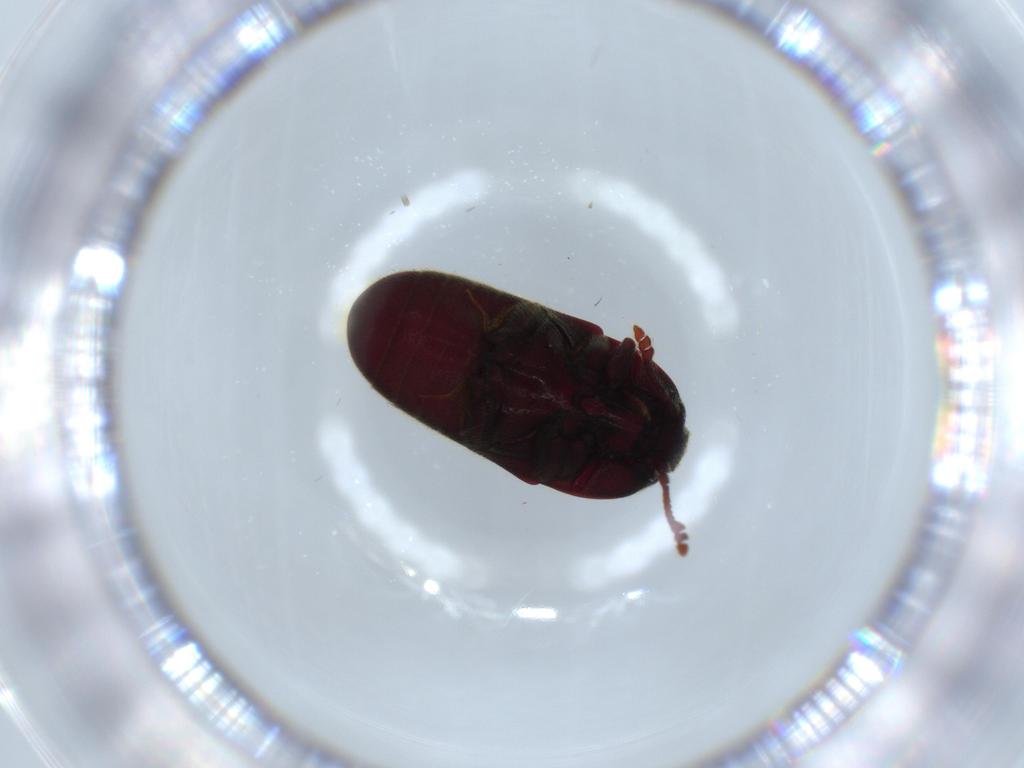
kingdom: Animalia
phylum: Arthropoda
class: Insecta
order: Coleoptera
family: Throscidae
